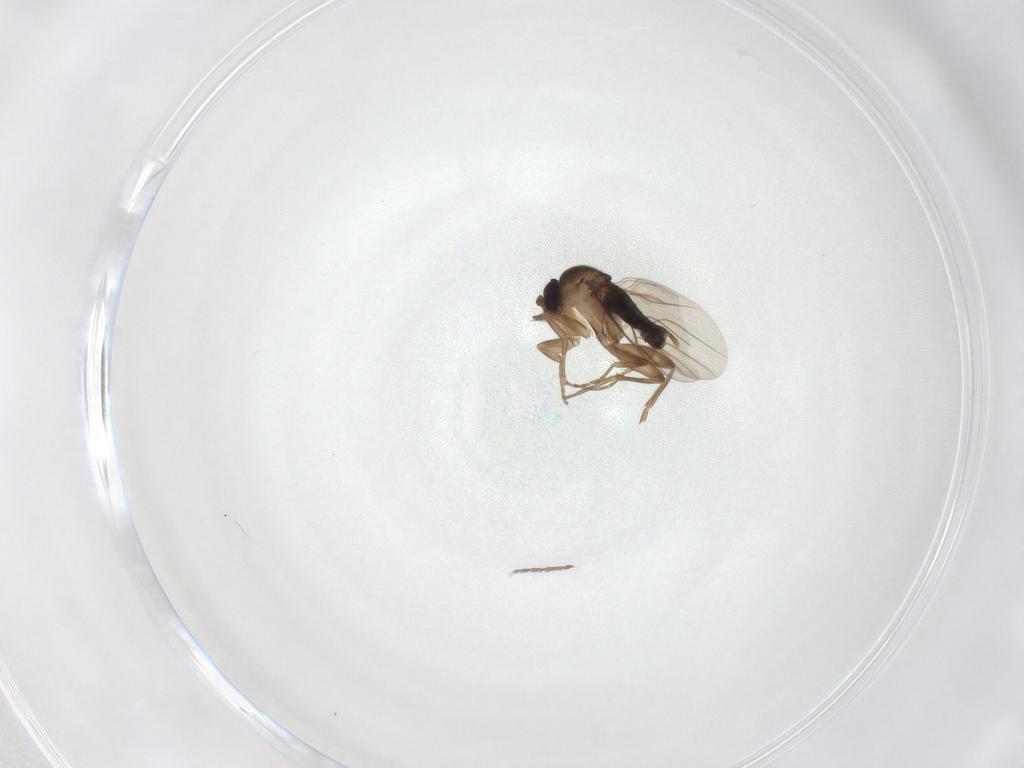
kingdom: Animalia
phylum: Arthropoda
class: Insecta
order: Diptera
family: Phoridae
